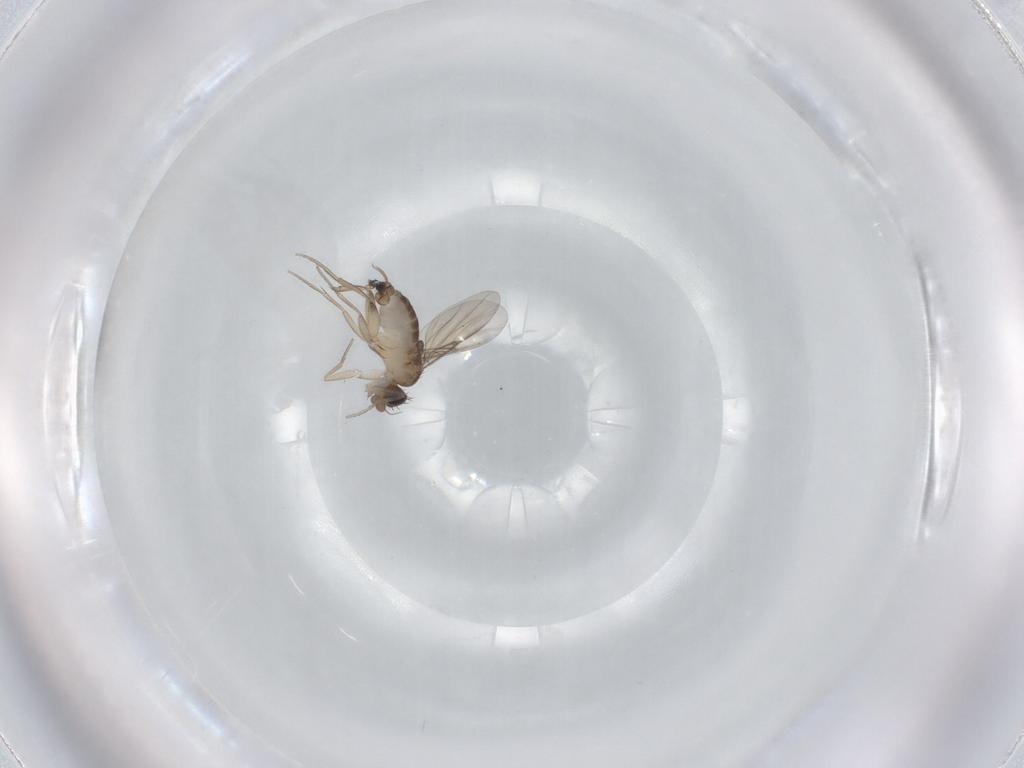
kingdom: Animalia
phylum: Arthropoda
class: Insecta
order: Diptera
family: Phoridae
